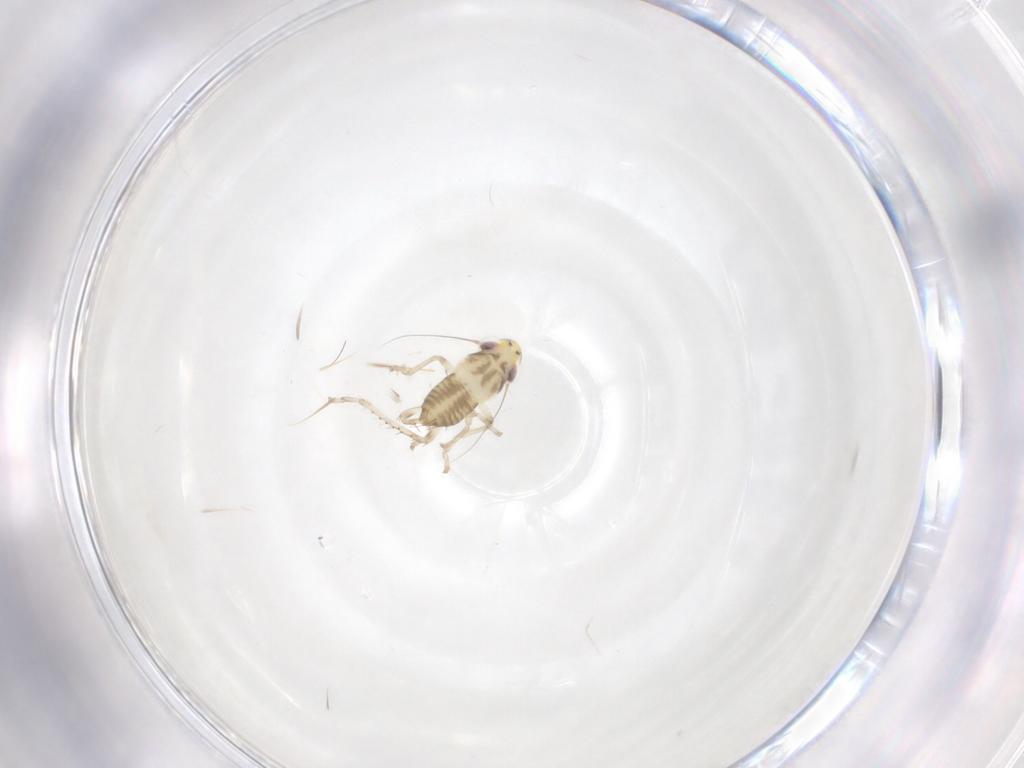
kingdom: Animalia
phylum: Arthropoda
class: Insecta
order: Hemiptera
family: Cicadellidae
